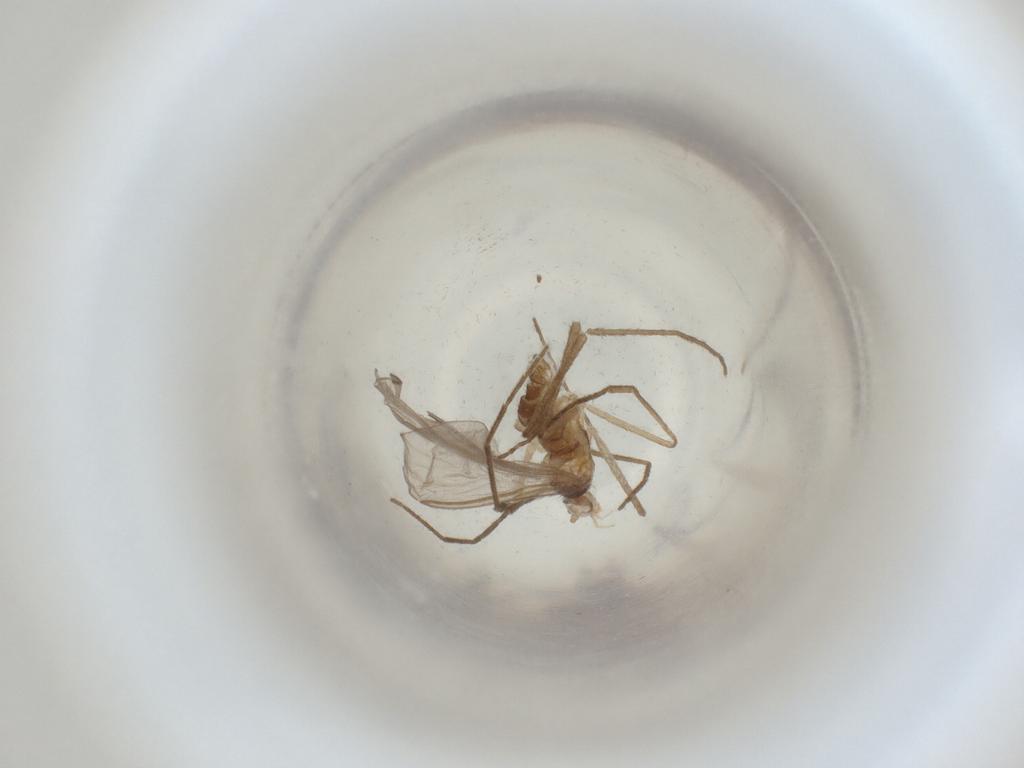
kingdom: Animalia
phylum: Arthropoda
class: Insecta
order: Diptera
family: Cecidomyiidae
